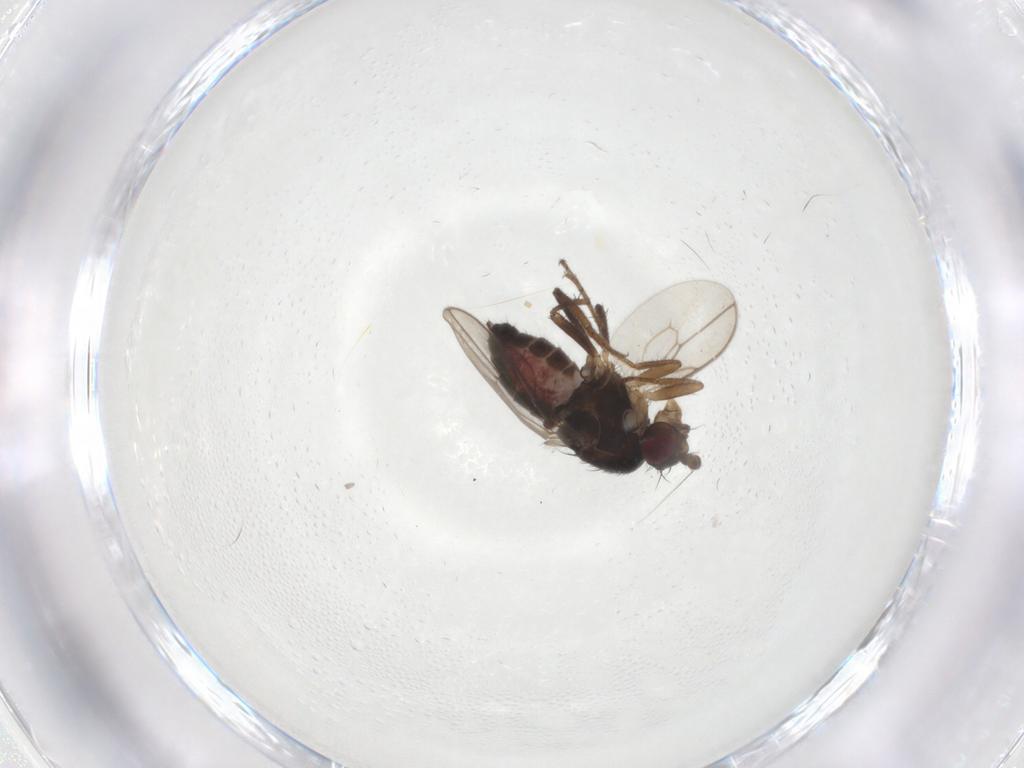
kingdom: Animalia
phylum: Arthropoda
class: Insecta
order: Diptera
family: Sphaeroceridae
